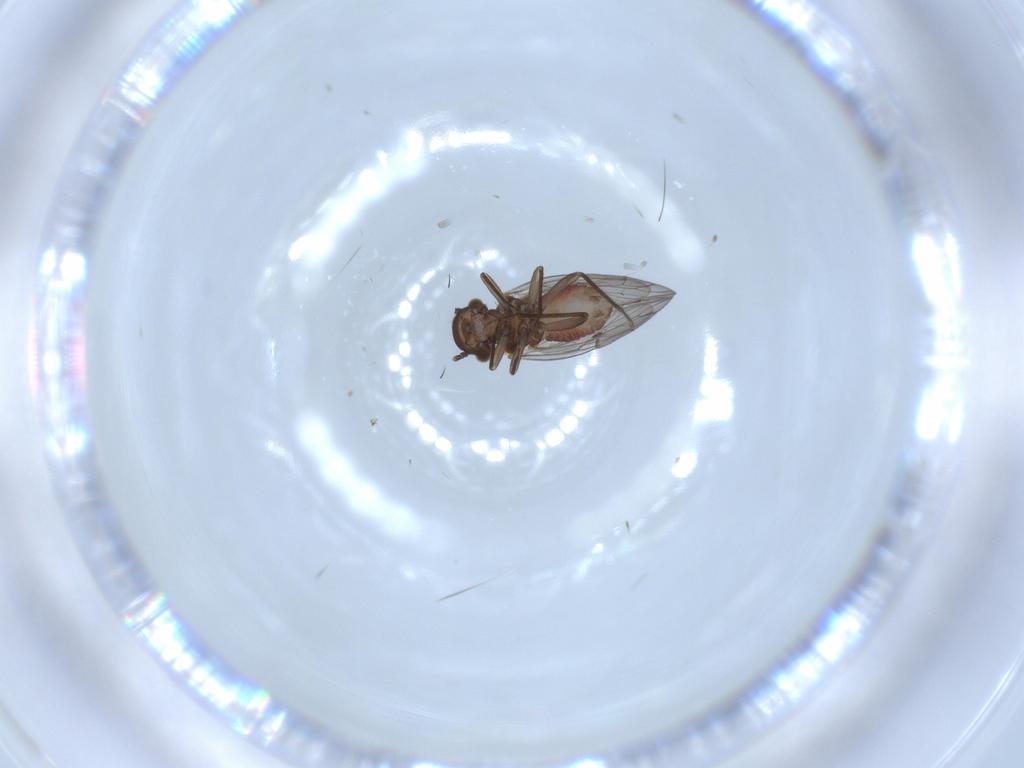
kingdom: Animalia
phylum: Arthropoda
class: Insecta
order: Psocodea
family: Ectopsocidae
